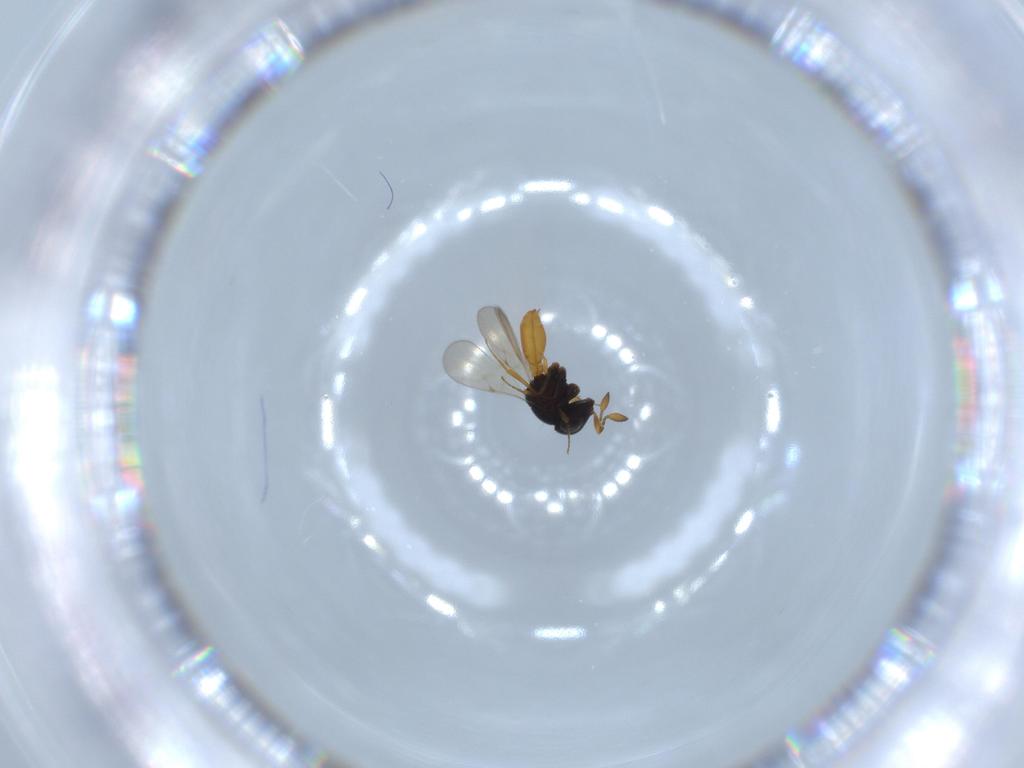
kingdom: Animalia
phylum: Arthropoda
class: Insecta
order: Hymenoptera
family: Scelionidae
